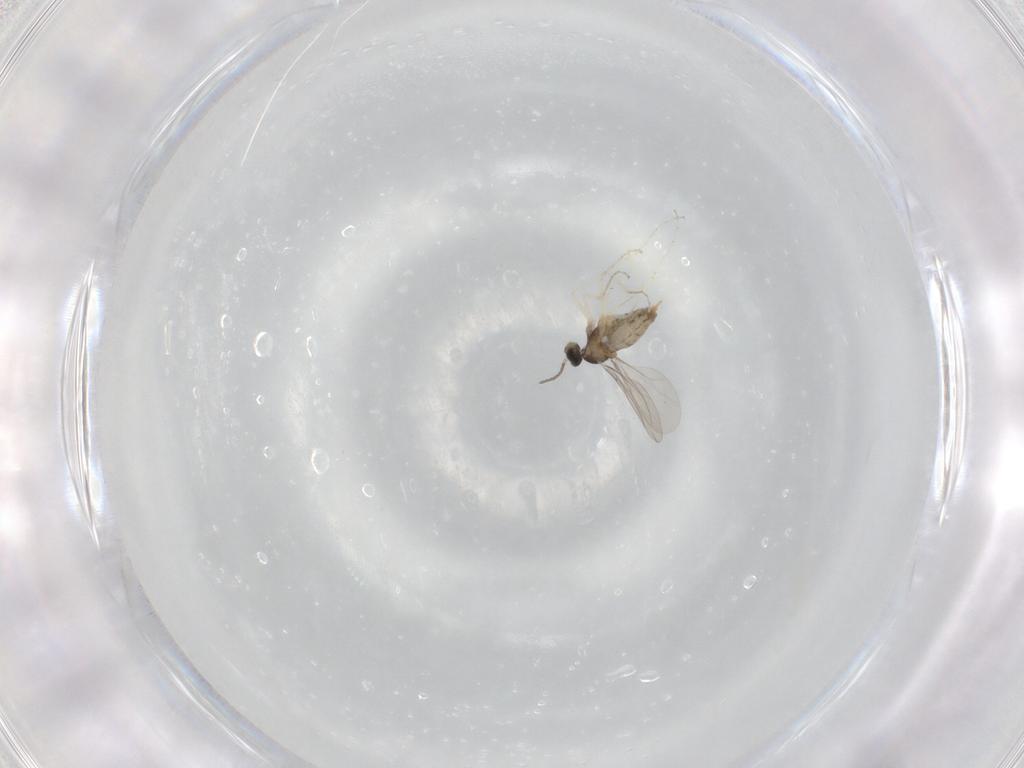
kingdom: Animalia
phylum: Arthropoda
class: Insecta
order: Diptera
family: Cecidomyiidae
